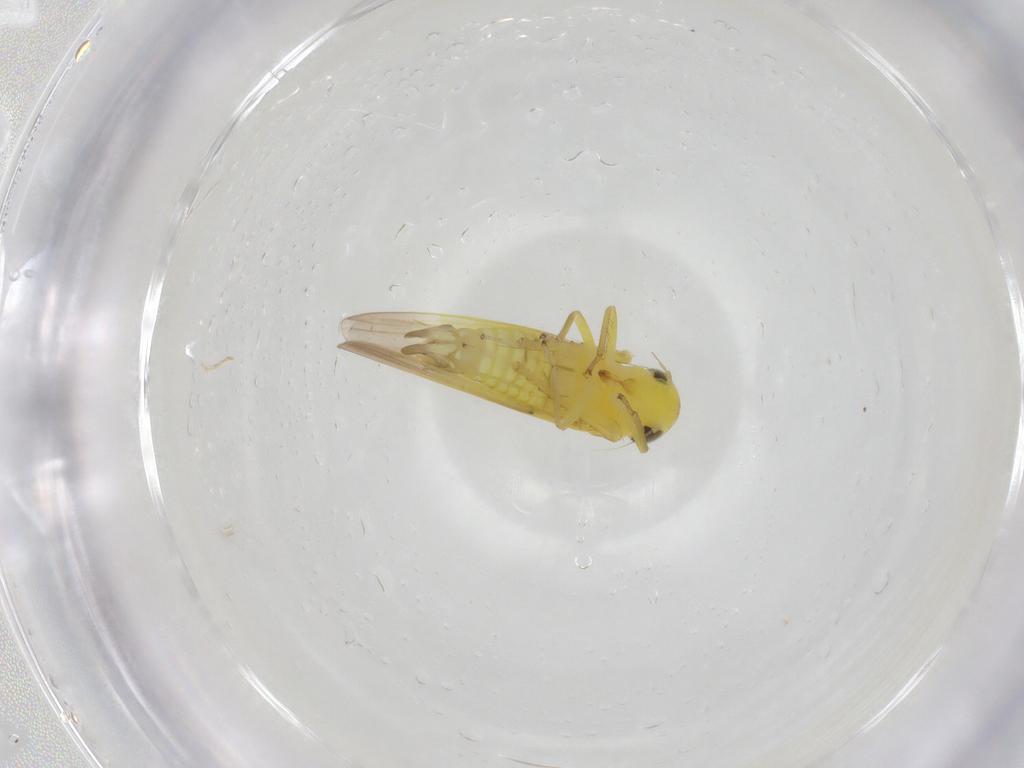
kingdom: Animalia
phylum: Arthropoda
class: Insecta
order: Hemiptera
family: Cicadellidae
